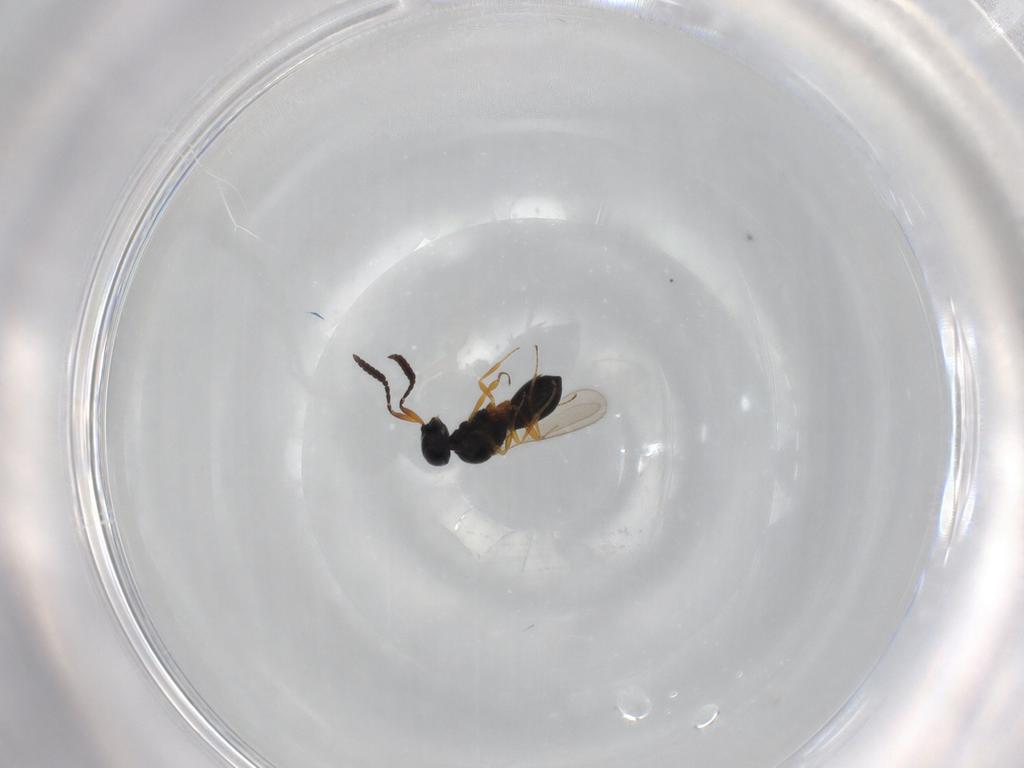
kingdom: Animalia
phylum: Arthropoda
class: Insecta
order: Hymenoptera
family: Scelionidae
